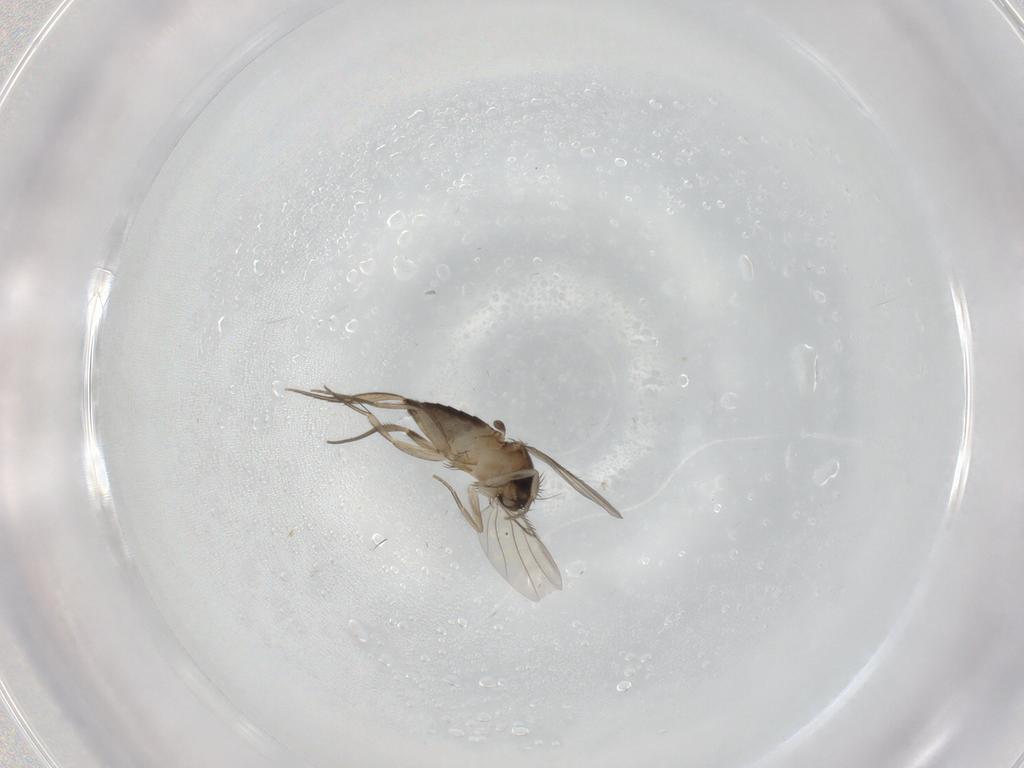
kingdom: Animalia
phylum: Arthropoda
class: Insecta
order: Diptera
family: Phoridae
